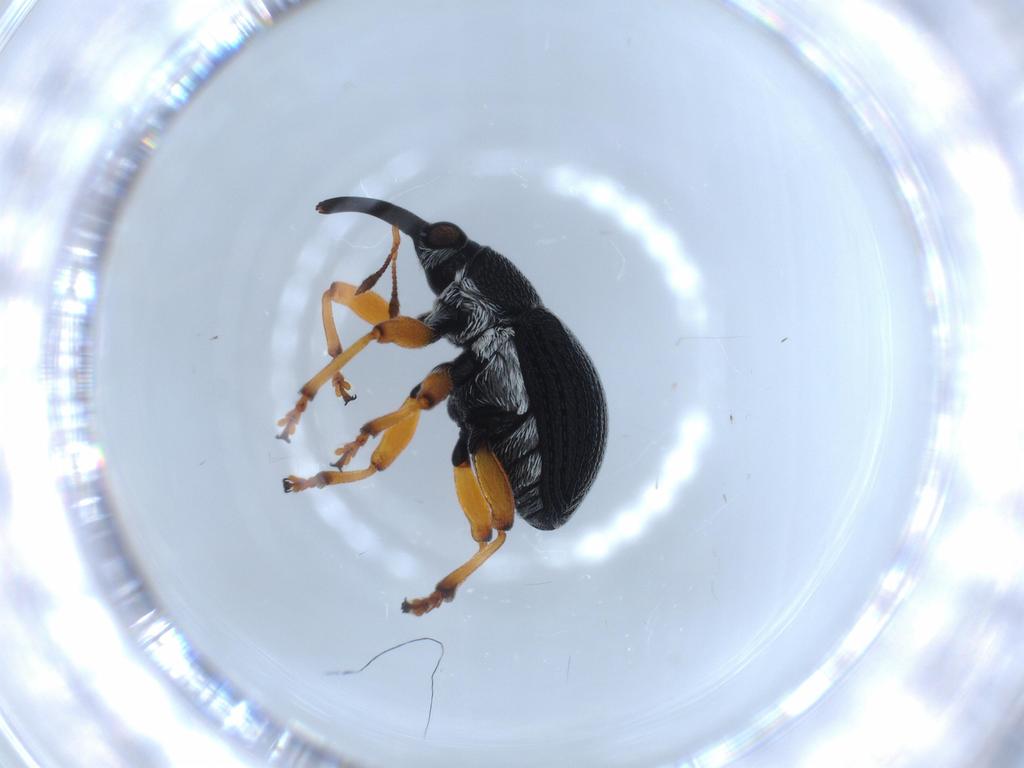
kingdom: Animalia
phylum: Arthropoda
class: Insecta
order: Coleoptera
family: Brentidae
